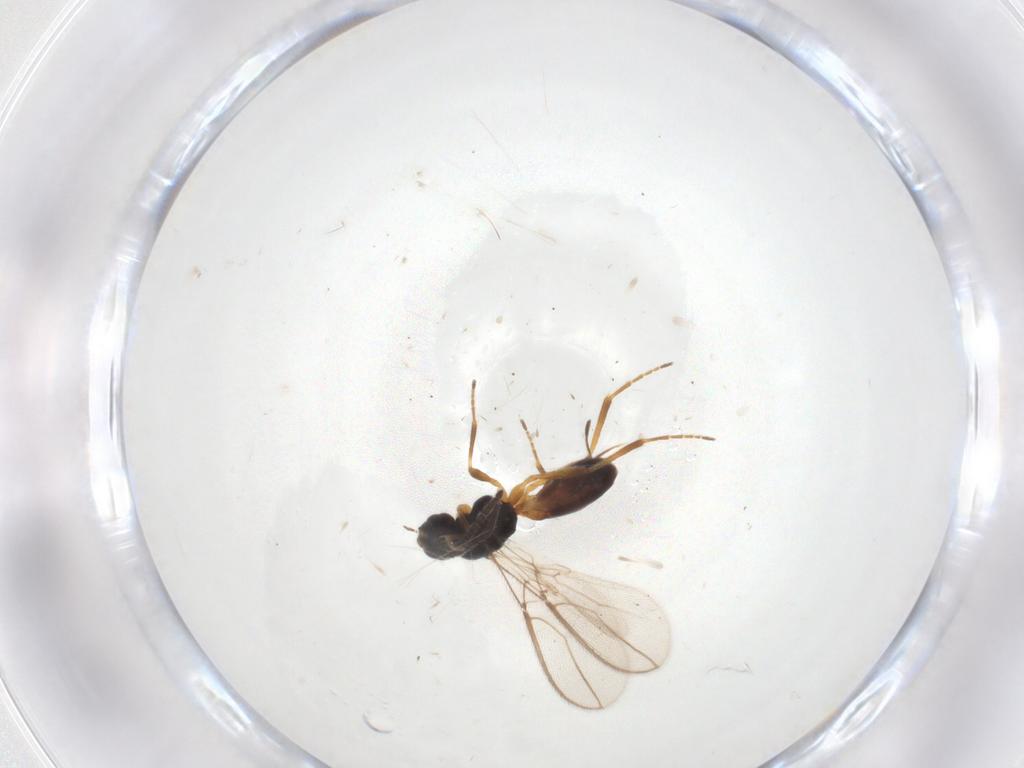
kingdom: Animalia
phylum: Arthropoda
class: Insecta
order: Hymenoptera
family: Braconidae
